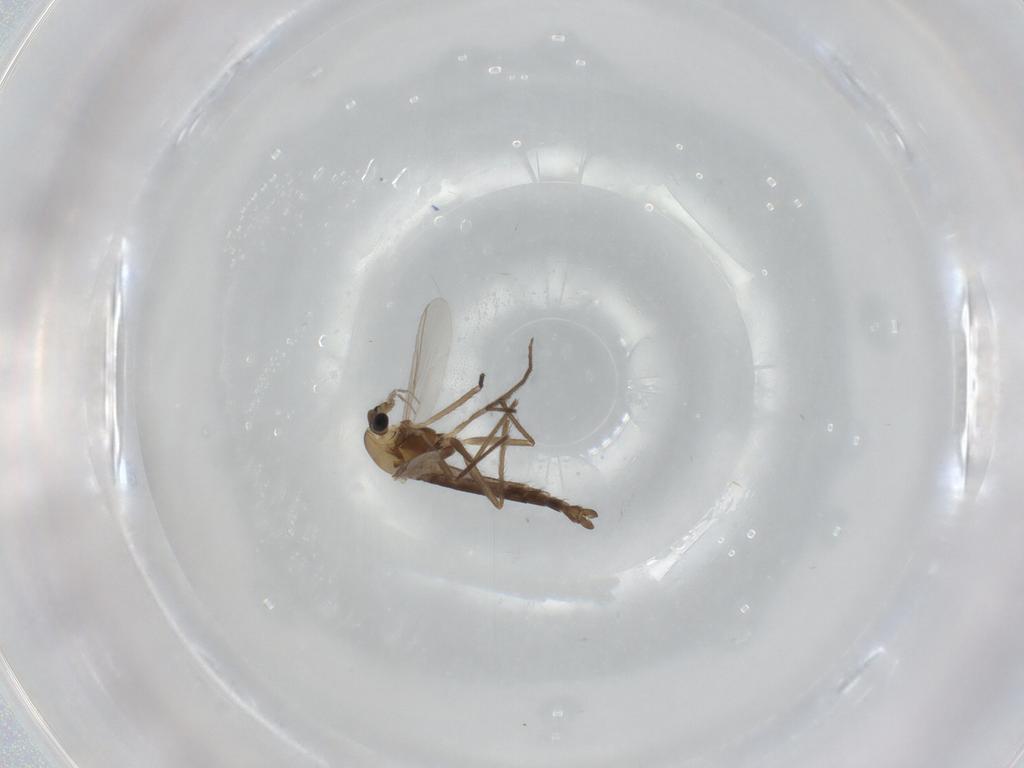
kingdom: Animalia
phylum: Arthropoda
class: Insecta
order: Diptera
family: Chironomidae
